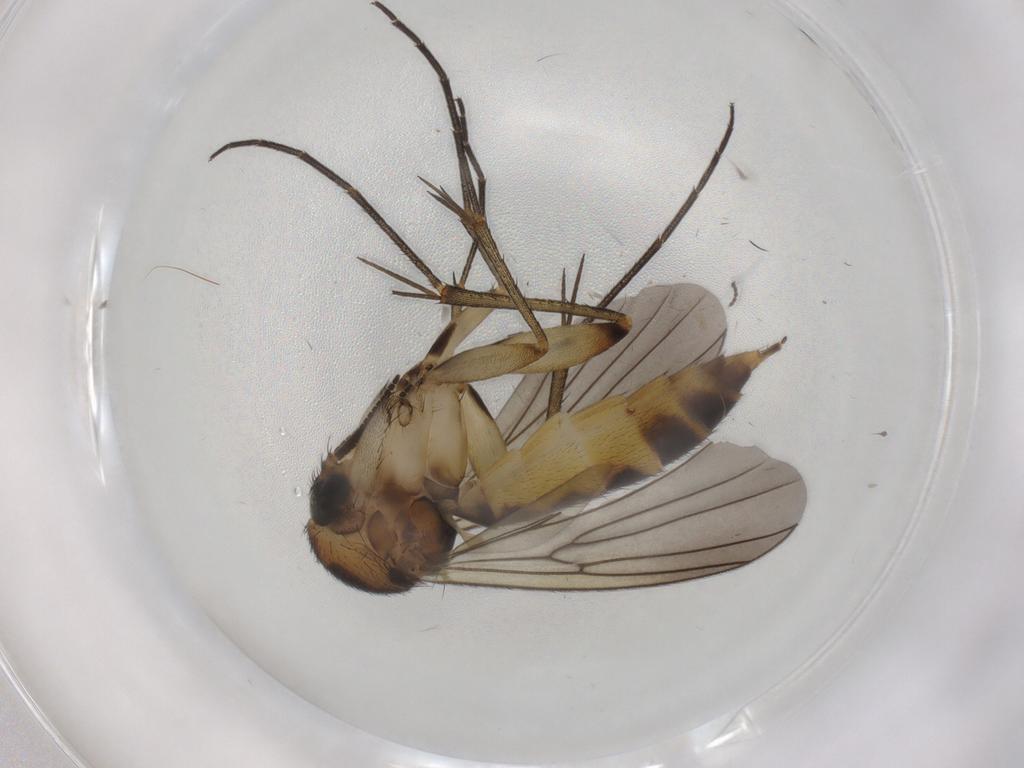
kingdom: Animalia
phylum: Arthropoda
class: Insecta
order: Diptera
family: Mycetophilidae
